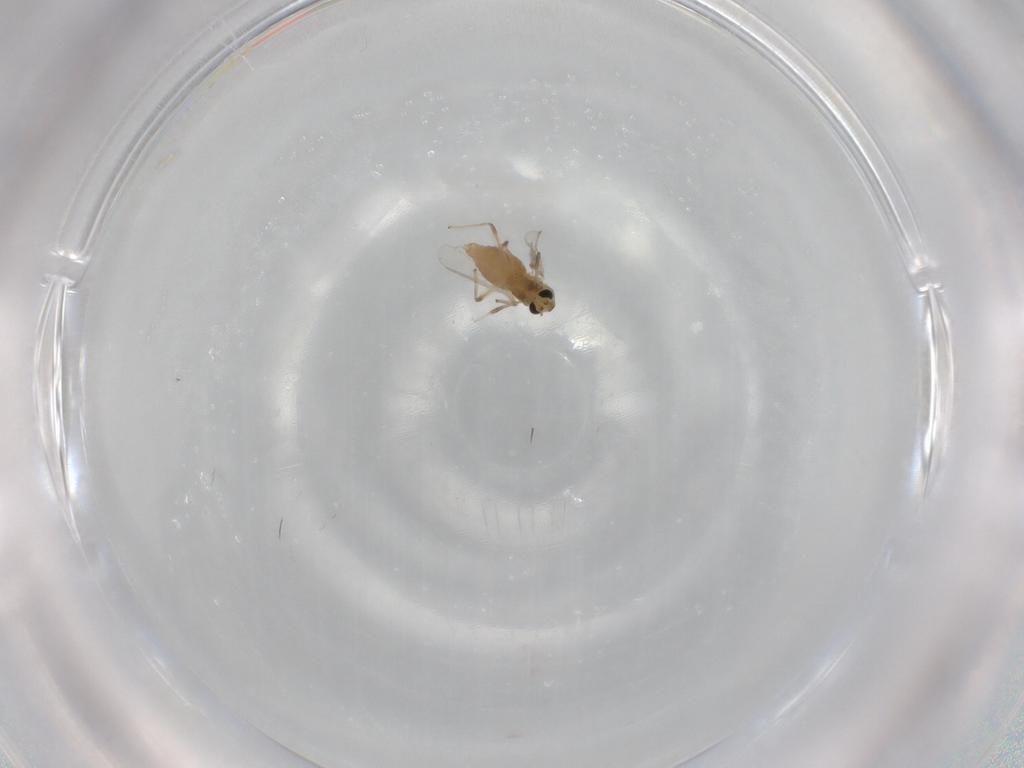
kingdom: Animalia
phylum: Arthropoda
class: Insecta
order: Diptera
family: Chironomidae
